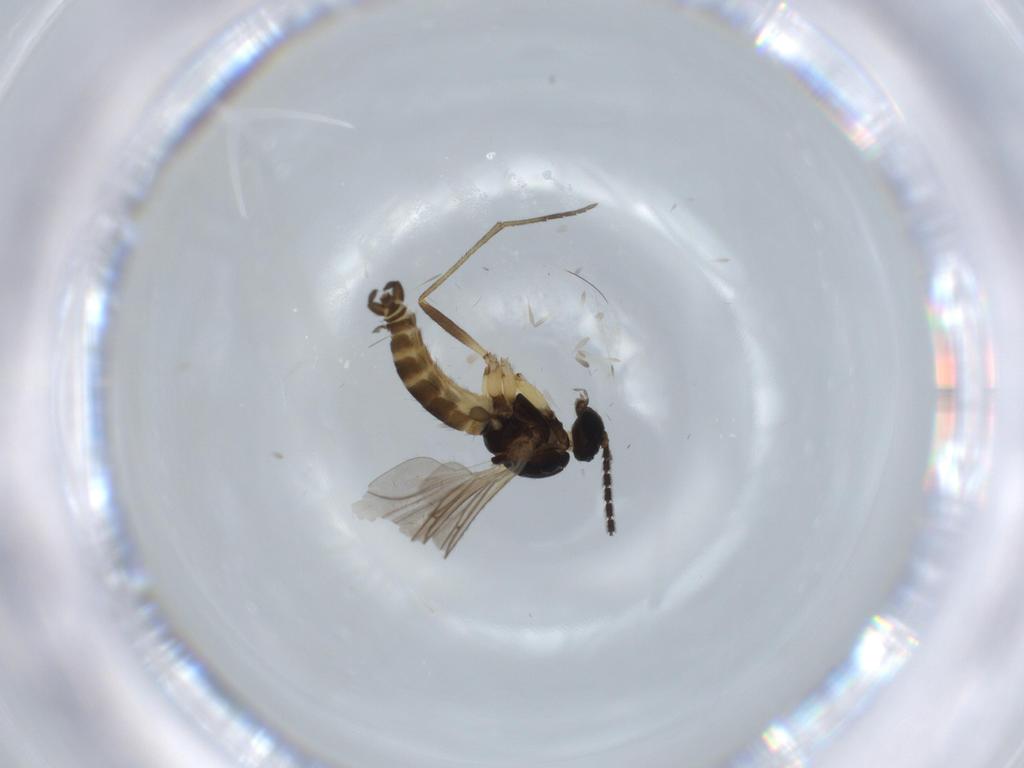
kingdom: Animalia
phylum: Arthropoda
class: Insecta
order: Diptera
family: Sciaridae
